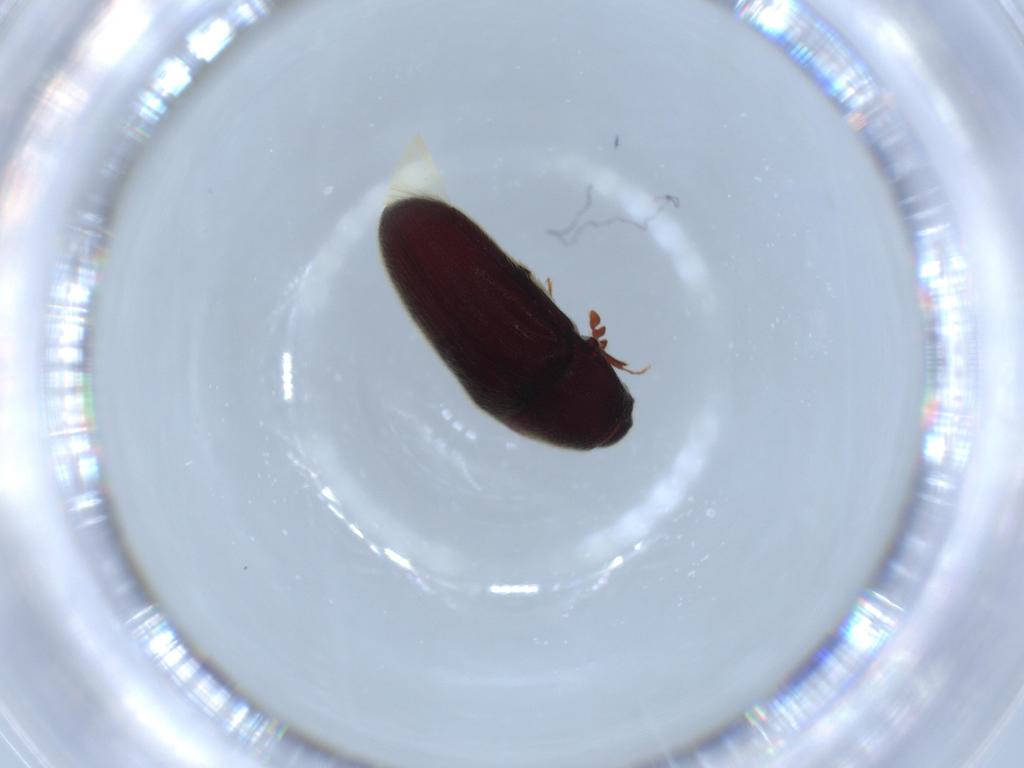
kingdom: Animalia
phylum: Arthropoda
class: Insecta
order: Coleoptera
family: Throscidae
